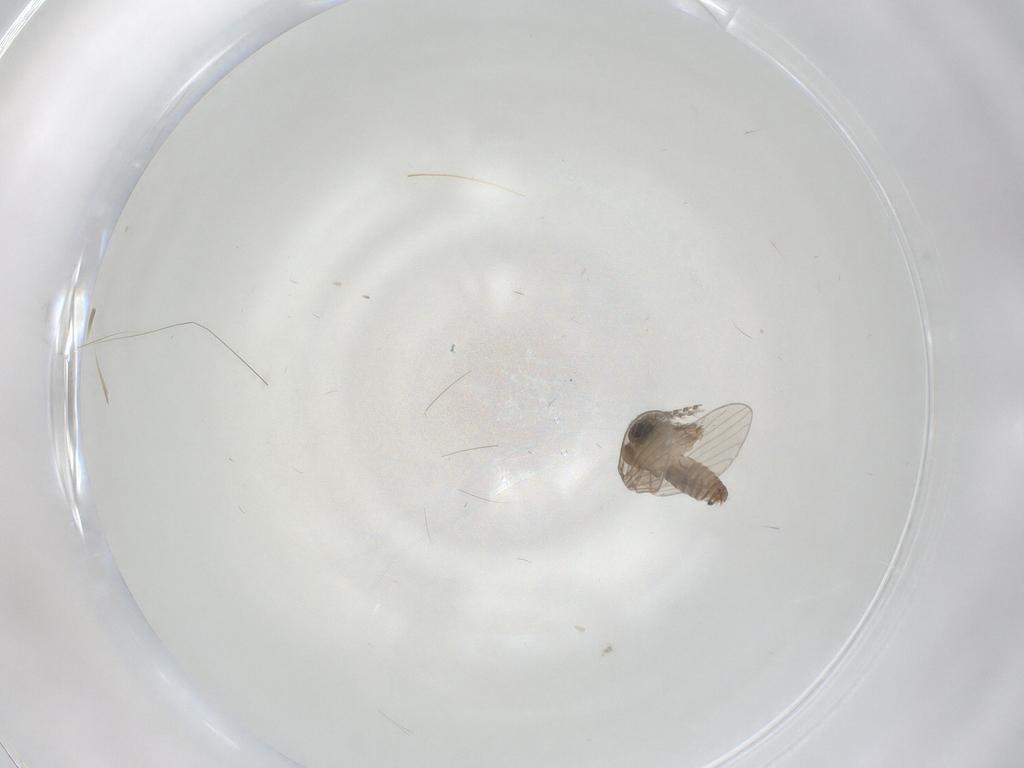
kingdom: Animalia
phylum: Arthropoda
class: Insecta
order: Diptera
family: Psychodidae
